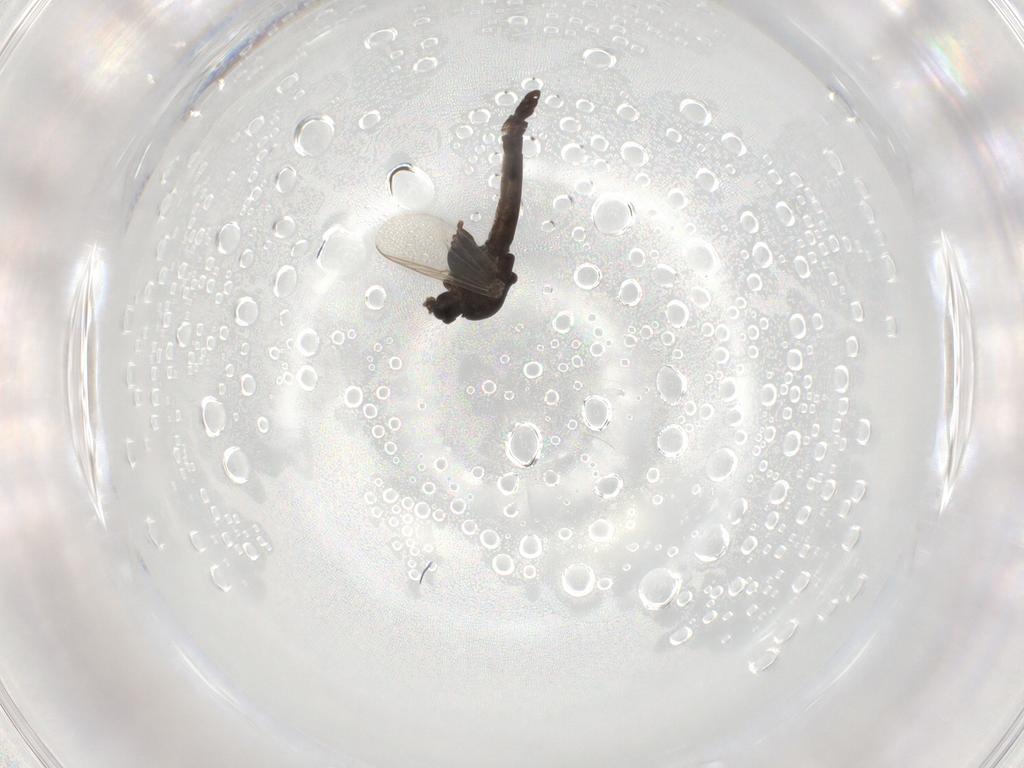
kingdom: Animalia
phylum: Arthropoda
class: Insecta
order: Diptera
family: Chironomidae
